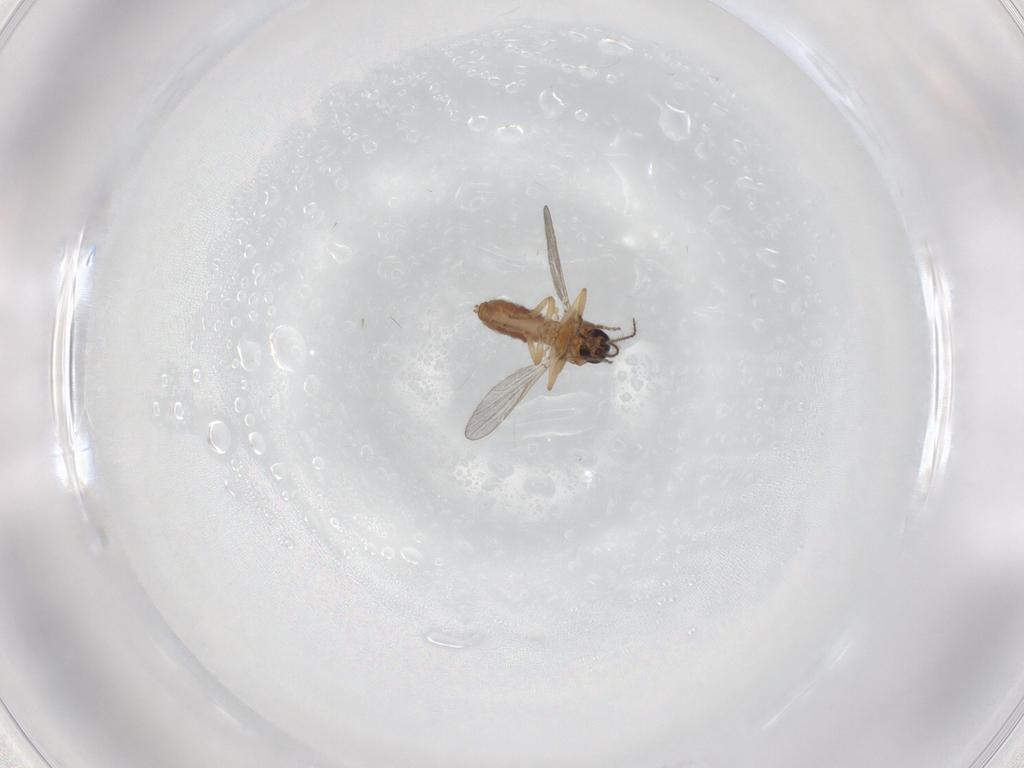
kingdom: Animalia
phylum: Arthropoda
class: Insecta
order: Diptera
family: Ceratopogonidae
